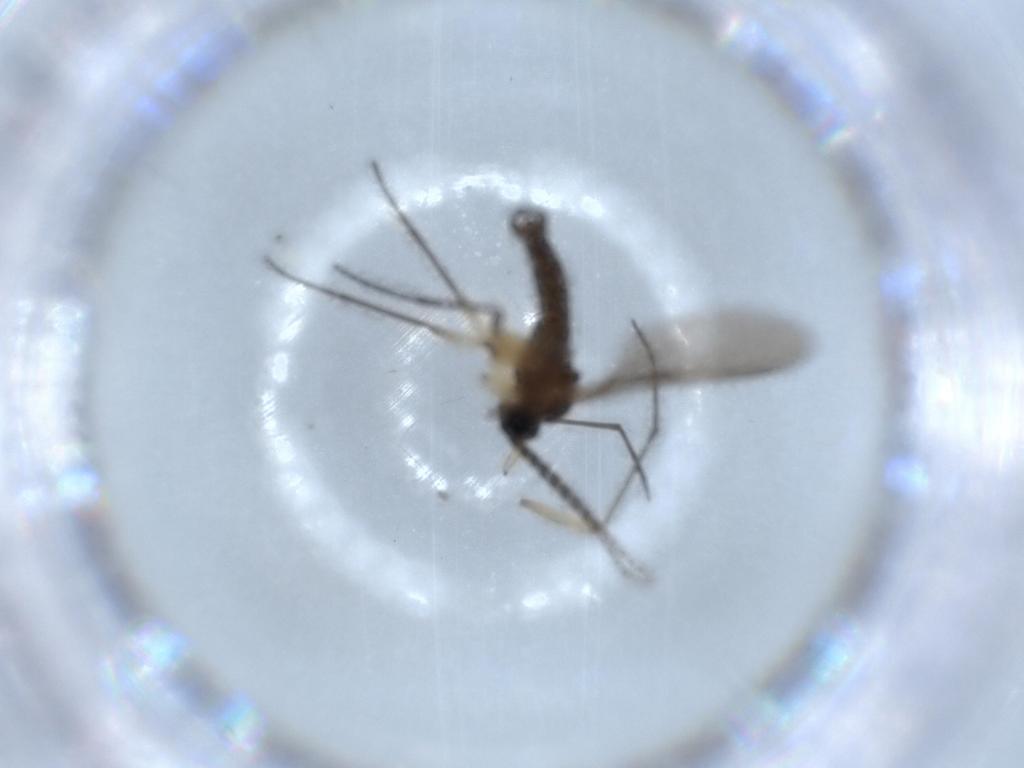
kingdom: Animalia
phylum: Arthropoda
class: Insecta
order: Diptera
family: Sciaridae
